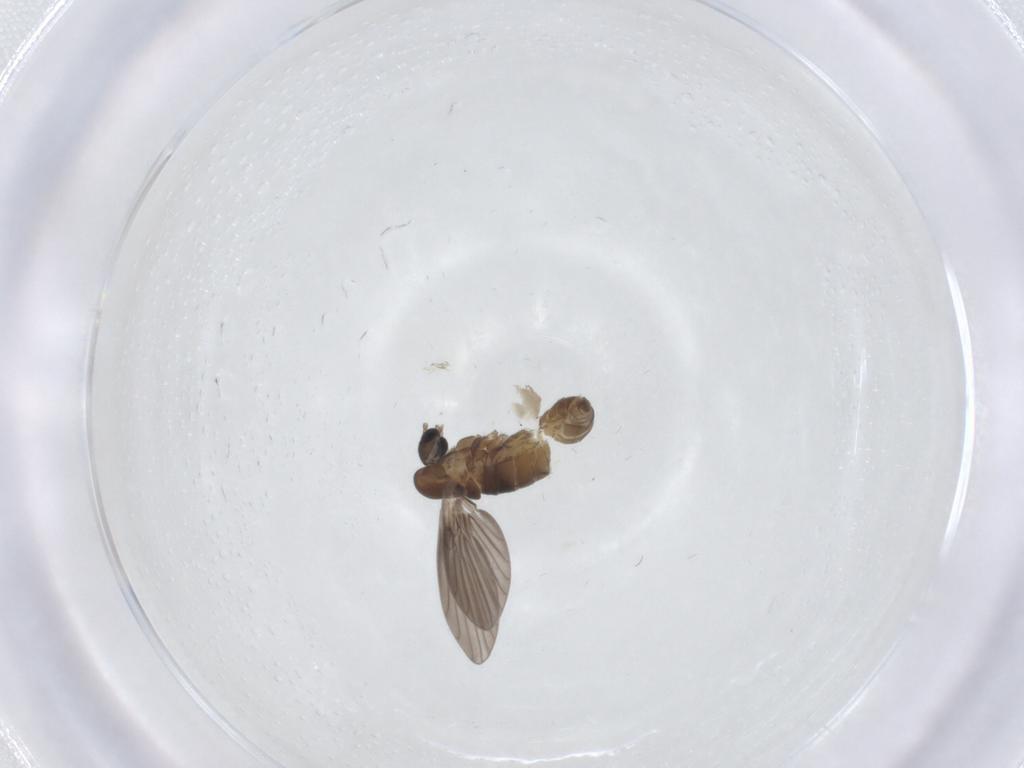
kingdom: Animalia
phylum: Arthropoda
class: Insecta
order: Diptera
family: Psychodidae
